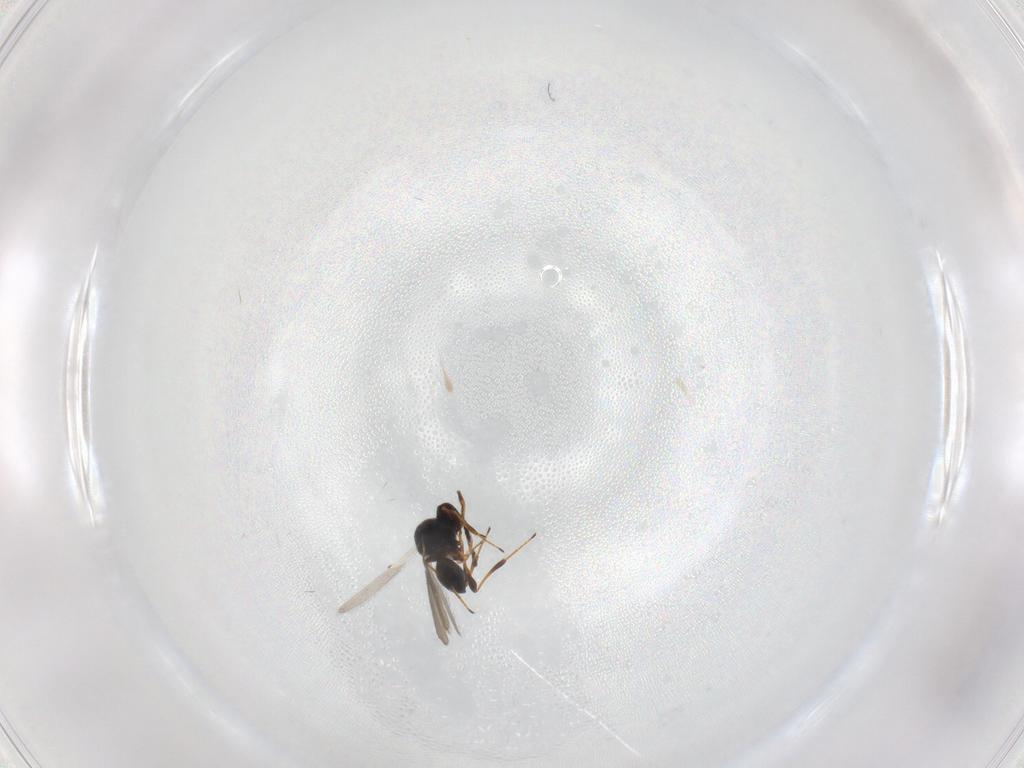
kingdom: Animalia
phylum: Arthropoda
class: Insecta
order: Hymenoptera
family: Platygastridae
